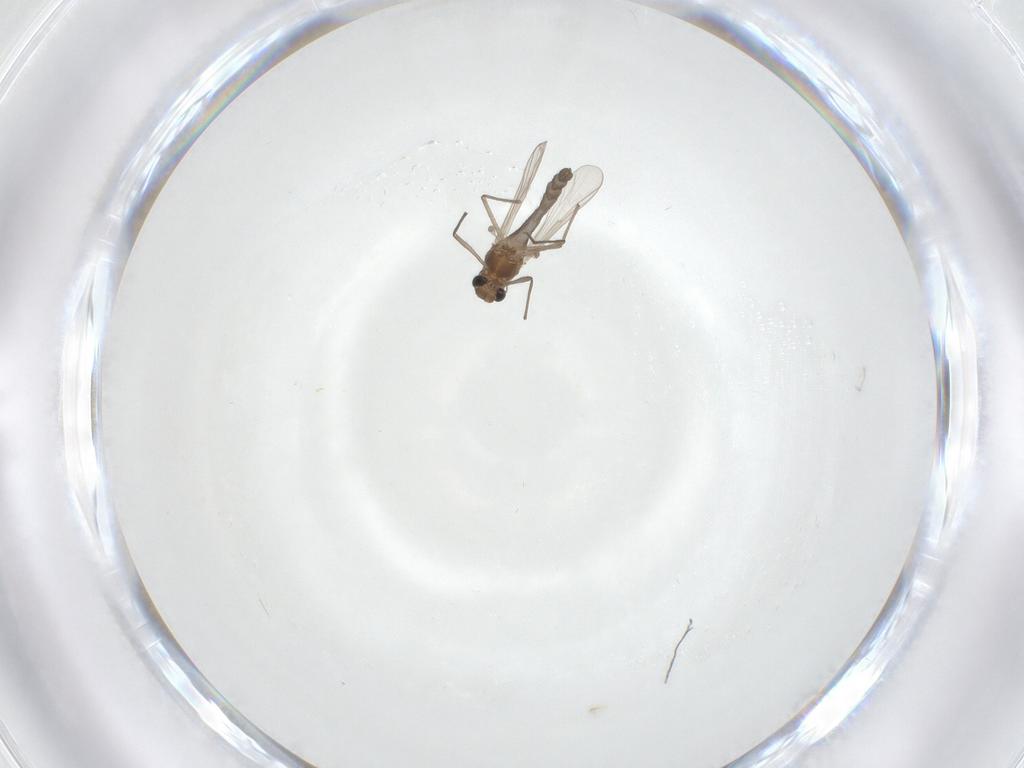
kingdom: Animalia
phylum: Arthropoda
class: Insecta
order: Diptera
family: Chironomidae
